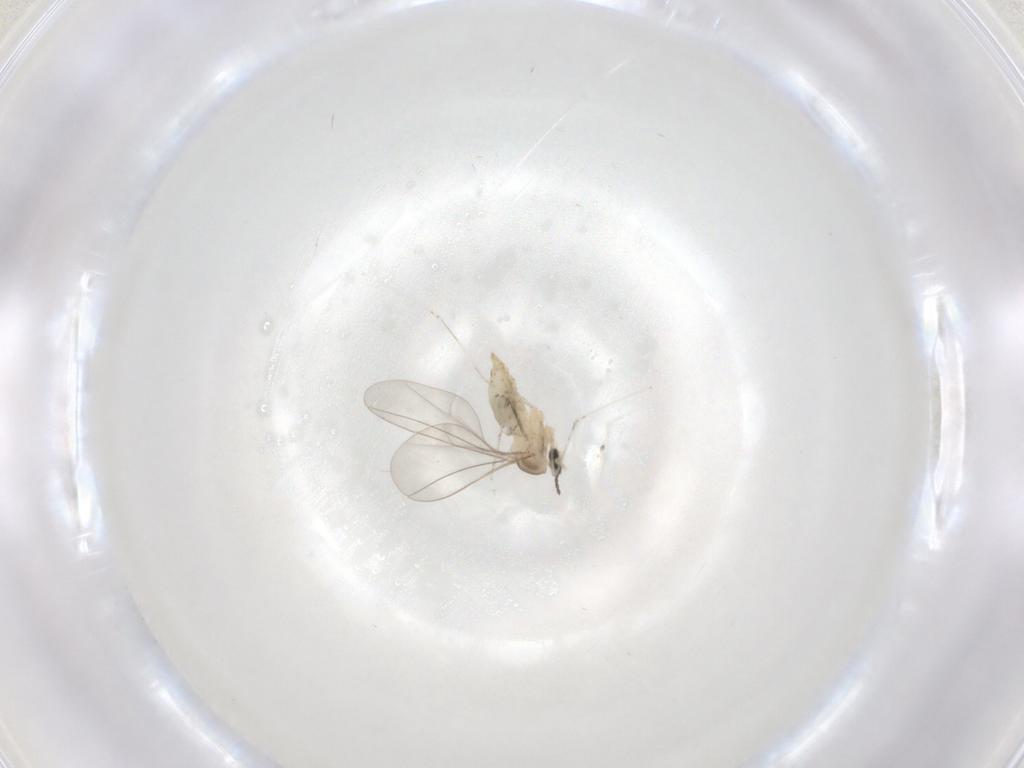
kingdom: Animalia
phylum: Arthropoda
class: Insecta
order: Diptera
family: Cecidomyiidae
